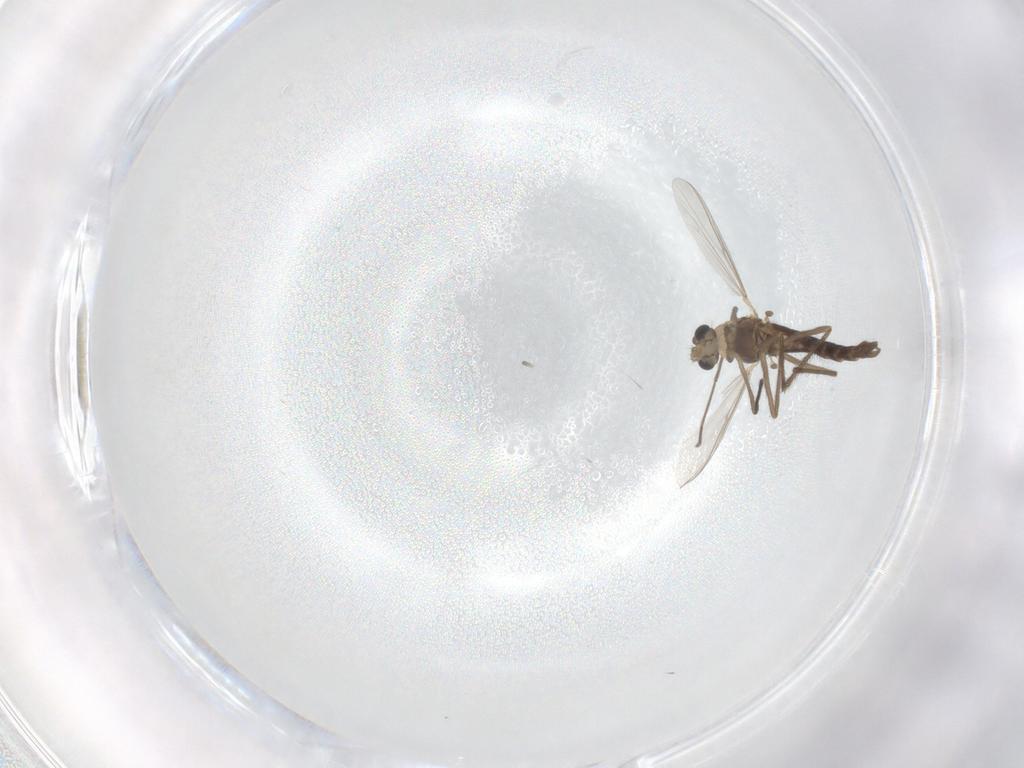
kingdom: Animalia
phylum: Arthropoda
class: Insecta
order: Diptera
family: Chironomidae
